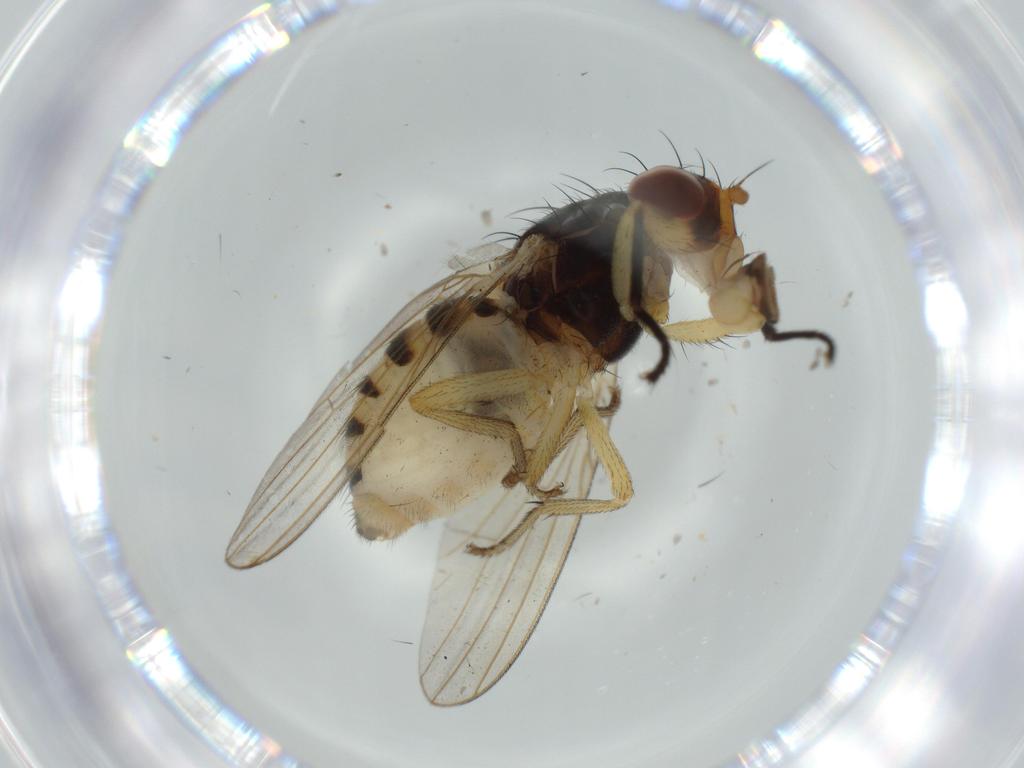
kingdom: Animalia
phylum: Arthropoda
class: Insecta
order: Diptera
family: Lauxaniidae
